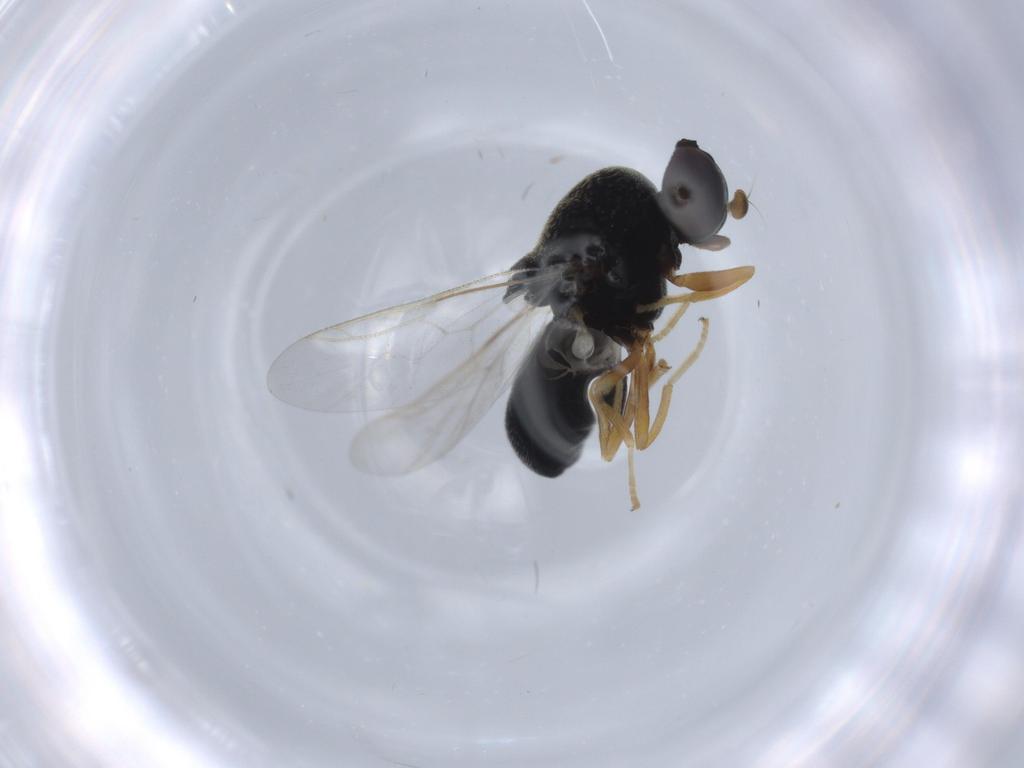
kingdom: Animalia
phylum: Arthropoda
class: Insecta
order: Diptera
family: Stratiomyidae
